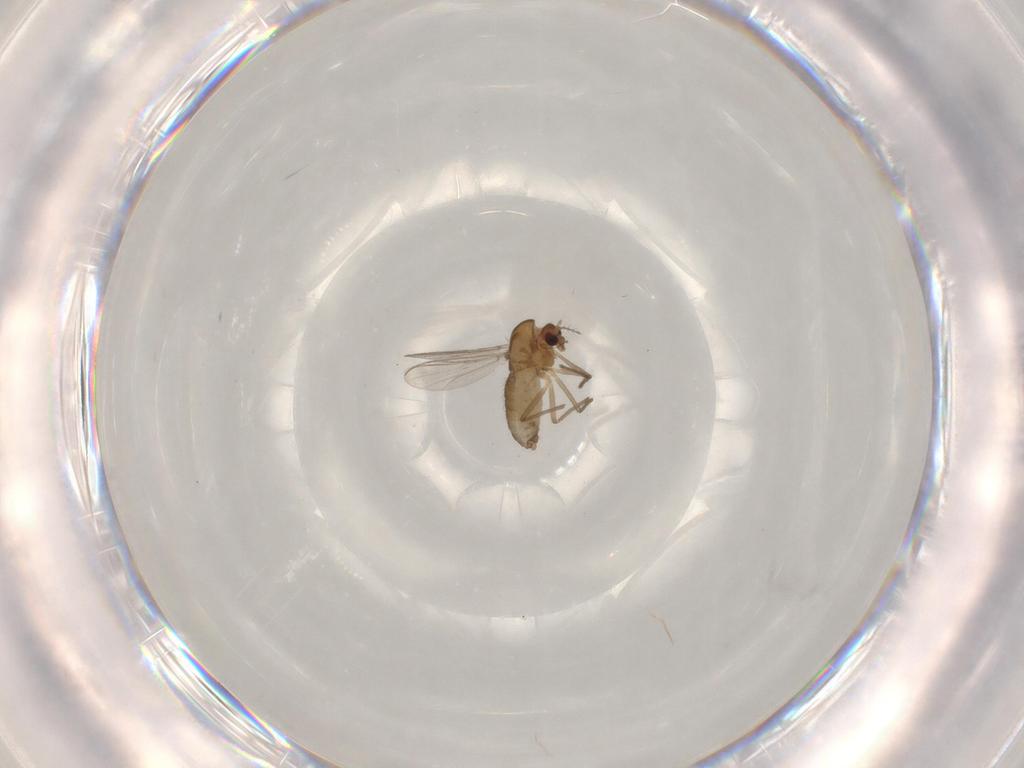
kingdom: Animalia
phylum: Arthropoda
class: Insecta
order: Diptera
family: Chironomidae
